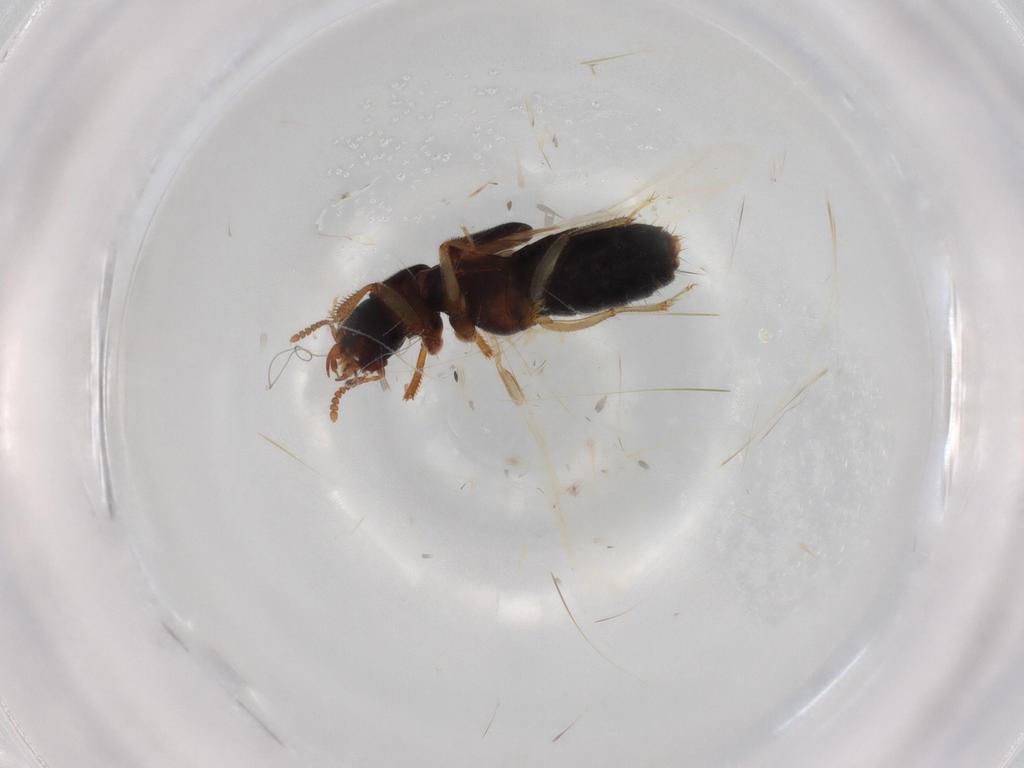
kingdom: Animalia
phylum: Arthropoda
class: Insecta
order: Coleoptera
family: Staphylinidae
